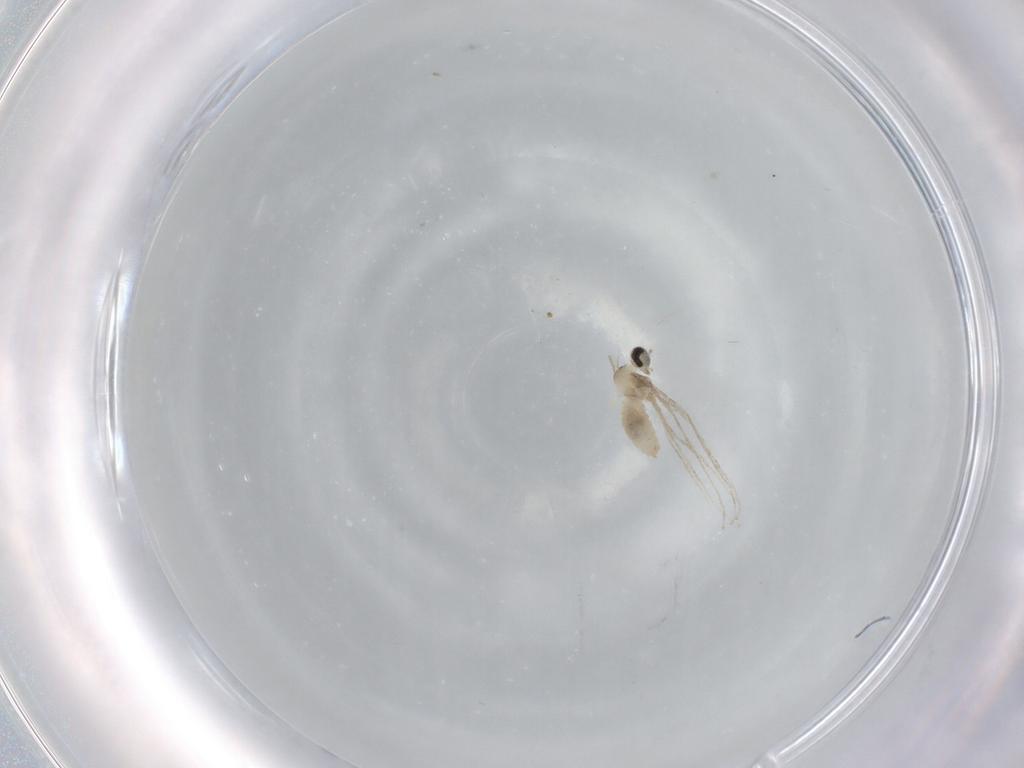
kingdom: Animalia
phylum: Arthropoda
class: Insecta
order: Diptera
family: Cecidomyiidae
